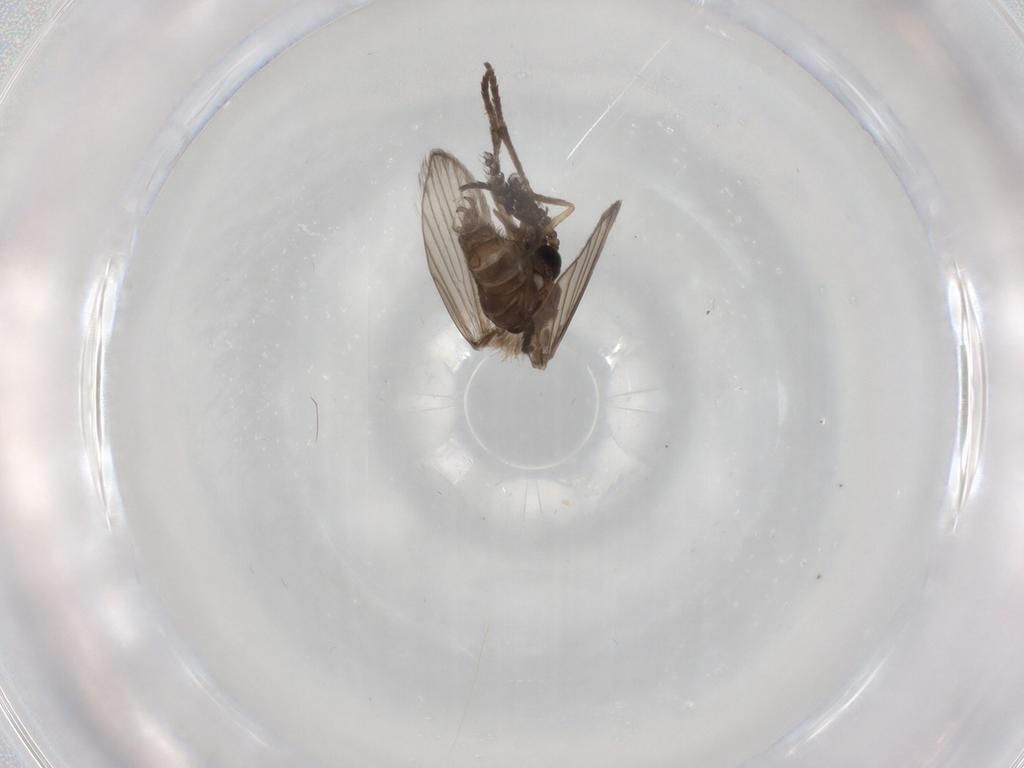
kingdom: Animalia
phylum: Arthropoda
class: Insecta
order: Diptera
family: Psychodidae
